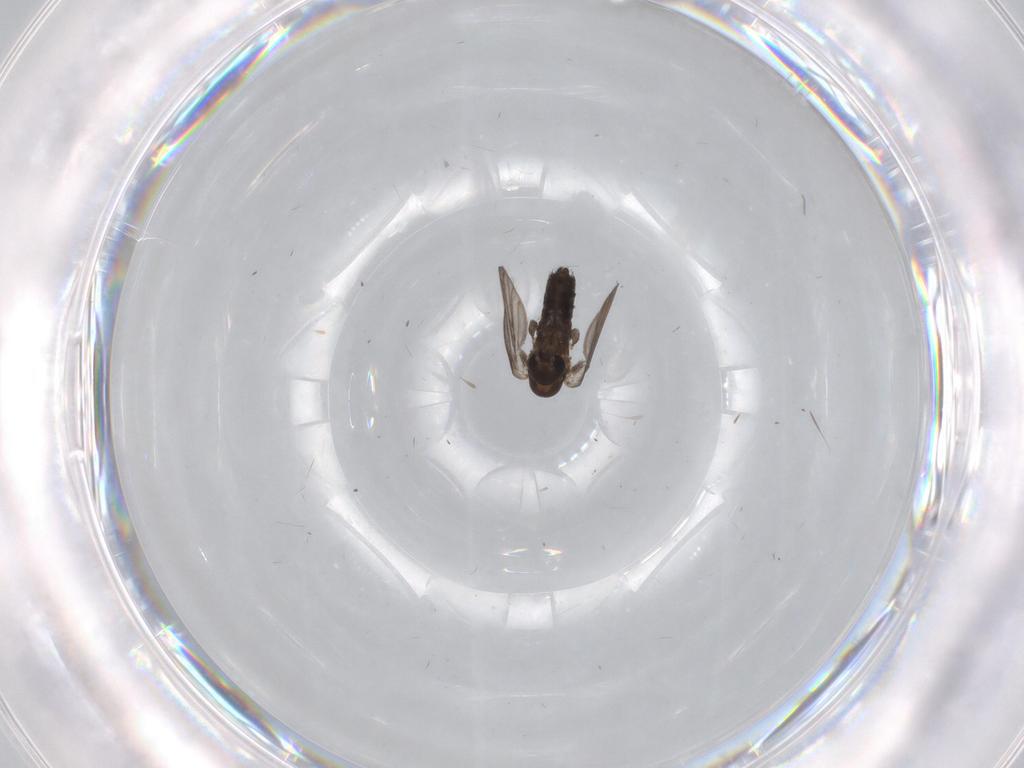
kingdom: Animalia
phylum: Arthropoda
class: Insecta
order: Diptera
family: Psychodidae
